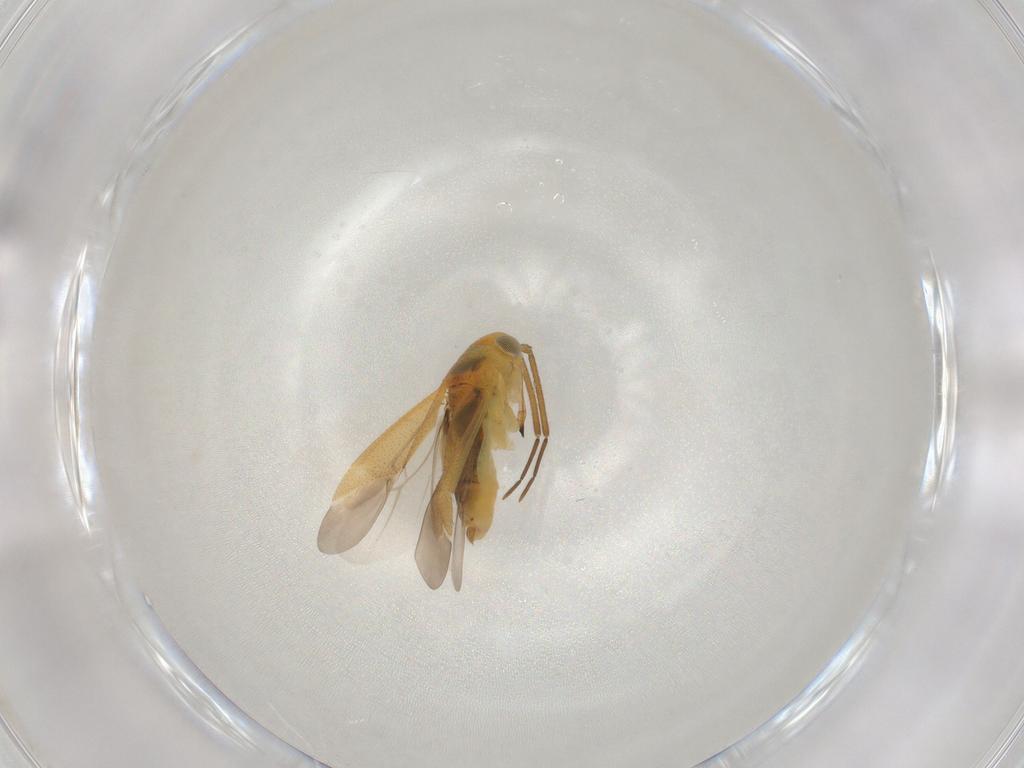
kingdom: Animalia
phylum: Arthropoda
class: Insecta
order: Hemiptera
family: Miridae
